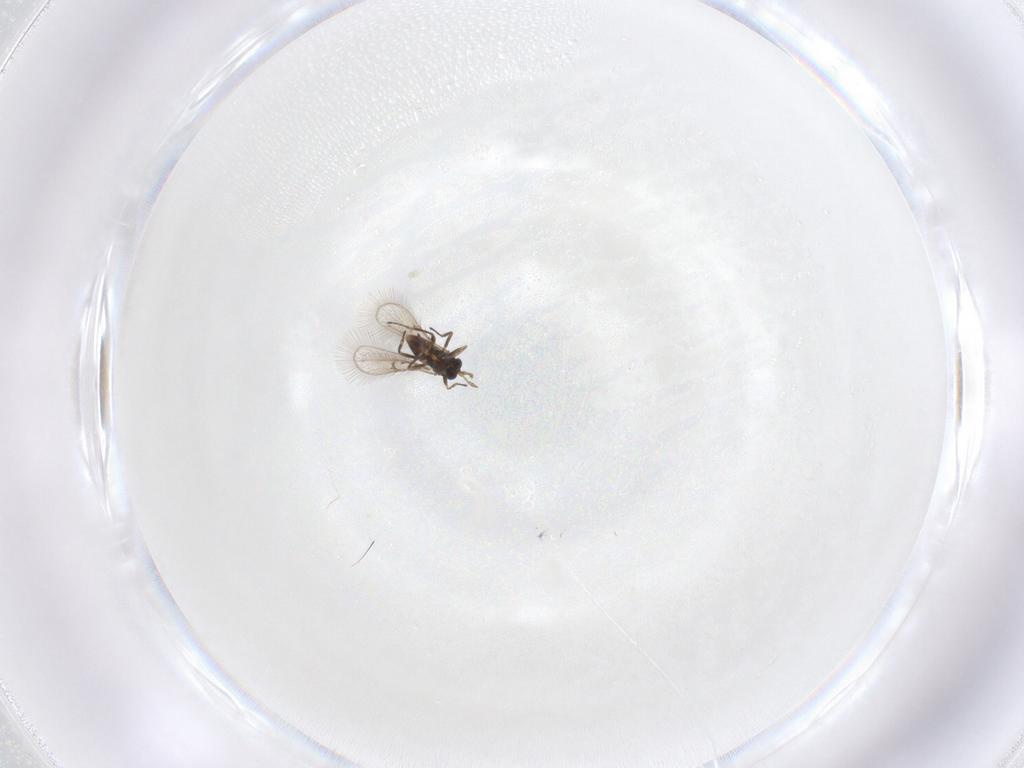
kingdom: Animalia
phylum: Arthropoda
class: Insecta
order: Hymenoptera
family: Trichogrammatidae
